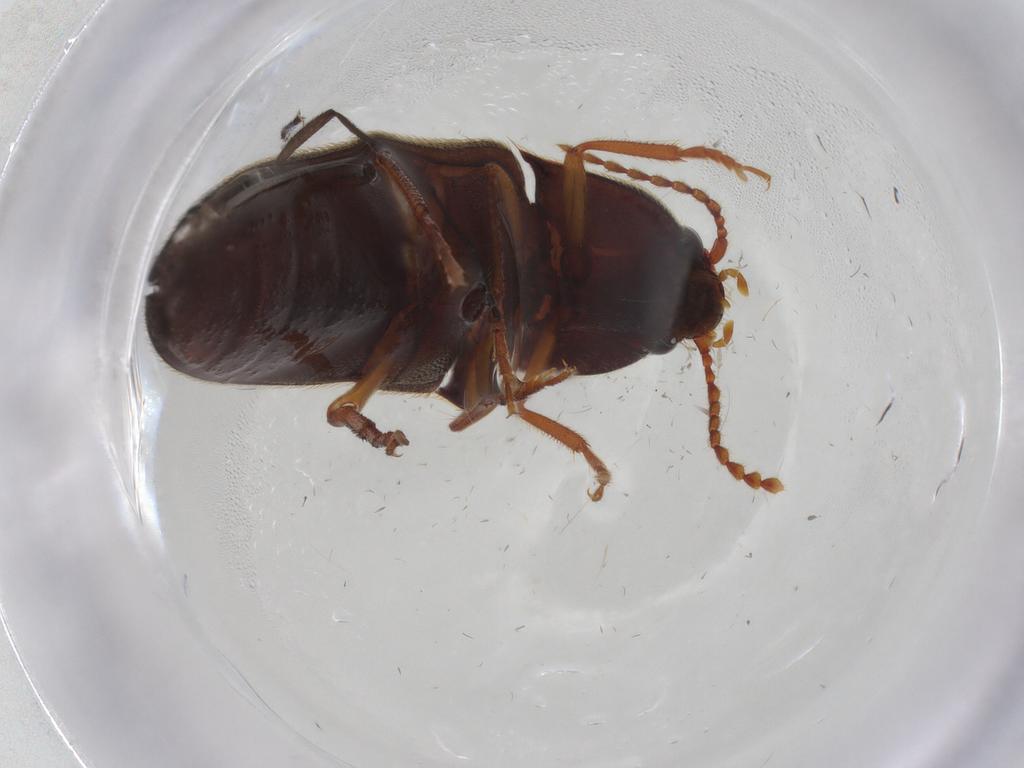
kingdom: Animalia
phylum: Arthropoda
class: Insecta
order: Coleoptera
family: Elateridae
